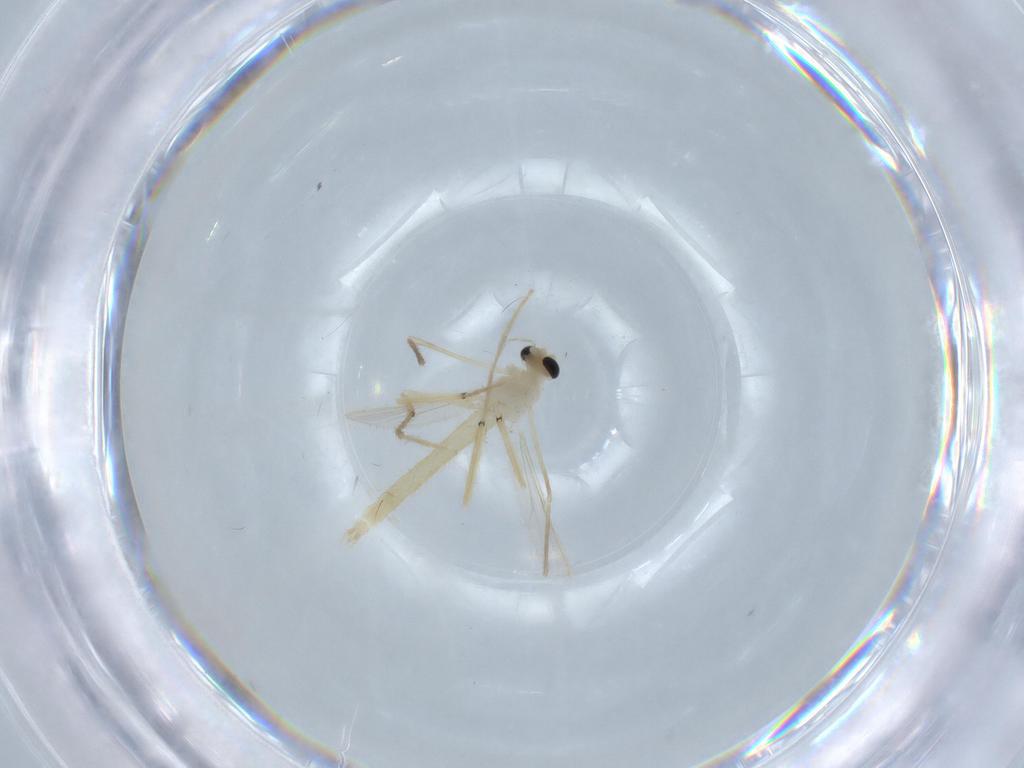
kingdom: Animalia
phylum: Arthropoda
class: Insecta
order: Diptera
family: Chironomidae
